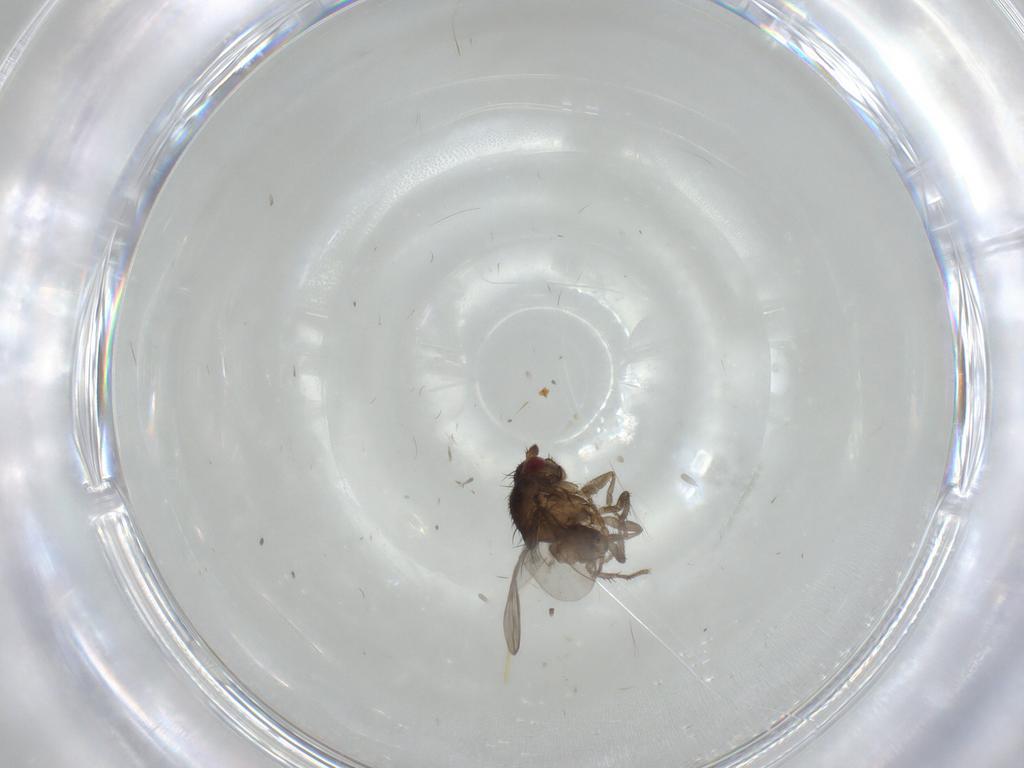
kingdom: Animalia
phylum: Arthropoda
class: Insecta
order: Diptera
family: Sphaeroceridae
